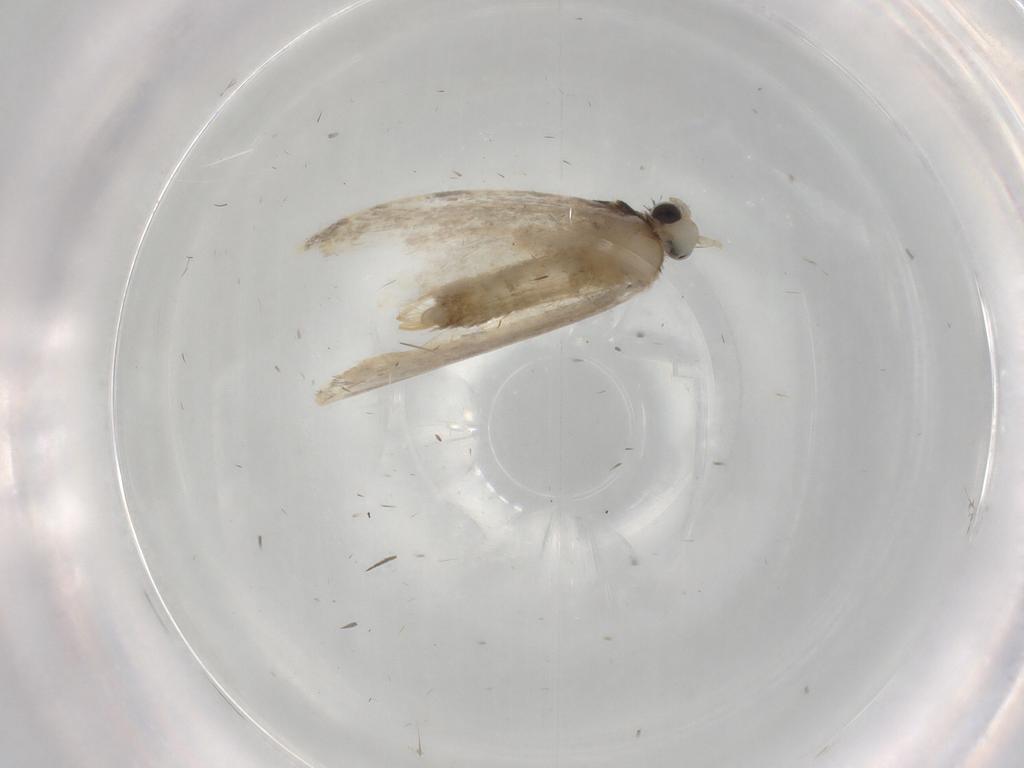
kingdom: Animalia
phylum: Arthropoda
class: Insecta
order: Lepidoptera
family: Psychidae
